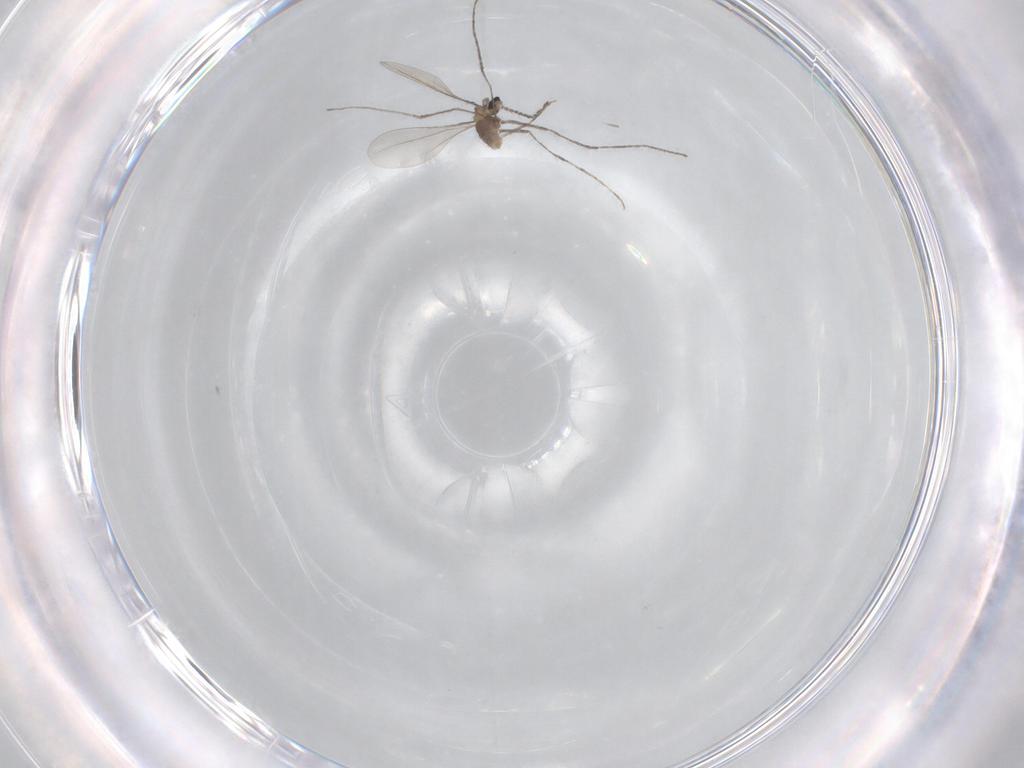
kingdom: Animalia
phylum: Arthropoda
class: Insecta
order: Diptera
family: Cecidomyiidae
